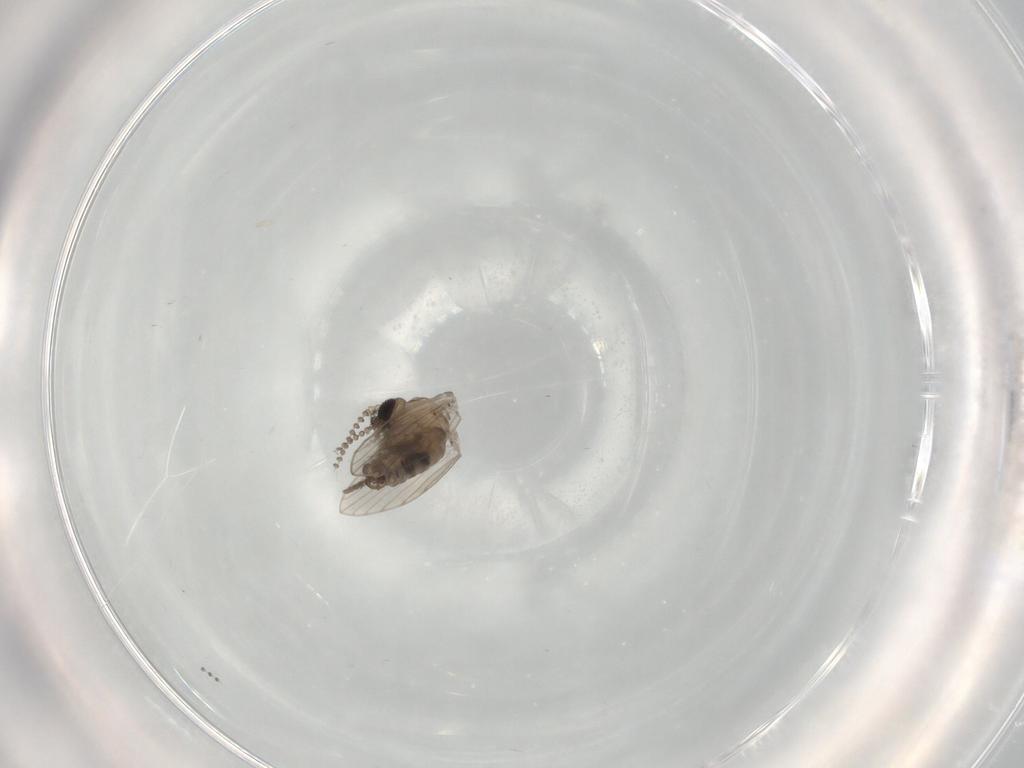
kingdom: Animalia
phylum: Arthropoda
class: Insecta
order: Diptera
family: Psychodidae
